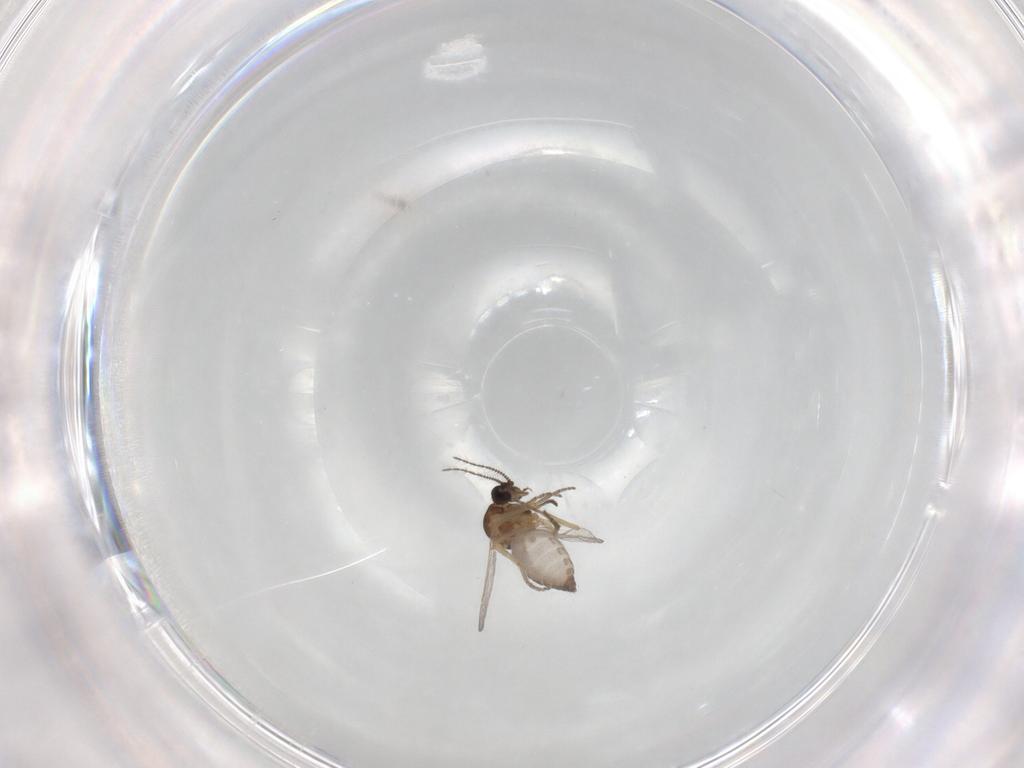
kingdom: Animalia
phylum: Arthropoda
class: Insecta
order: Diptera
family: Ceratopogonidae
